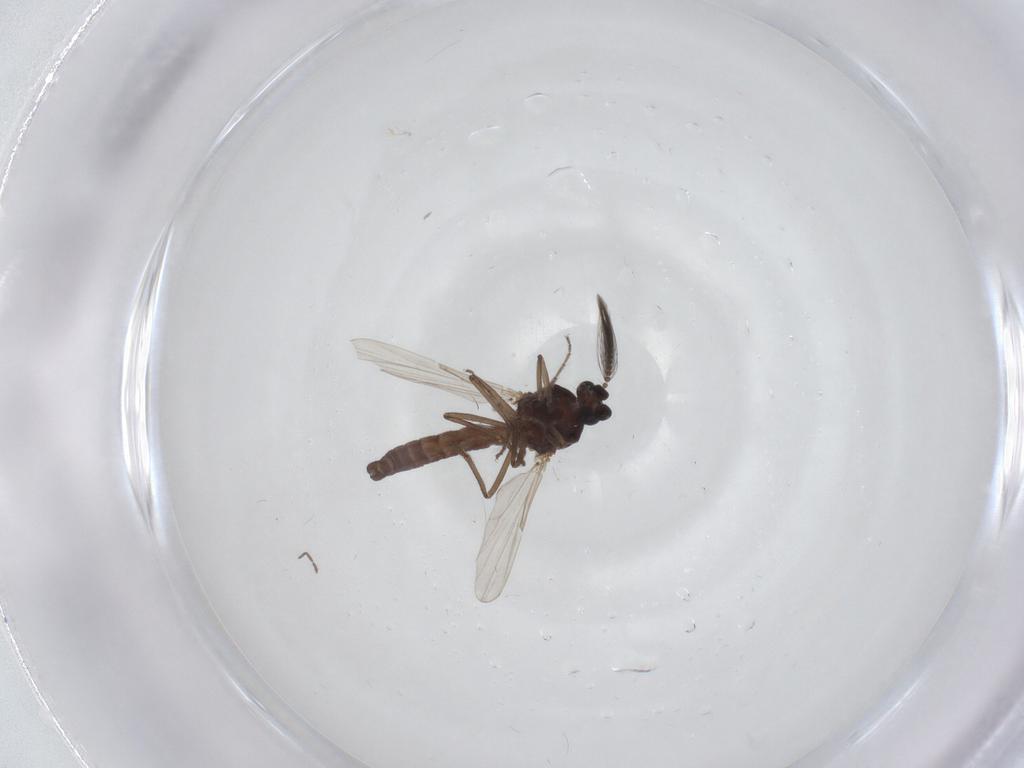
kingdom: Animalia
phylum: Arthropoda
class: Insecta
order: Diptera
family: Ceratopogonidae
